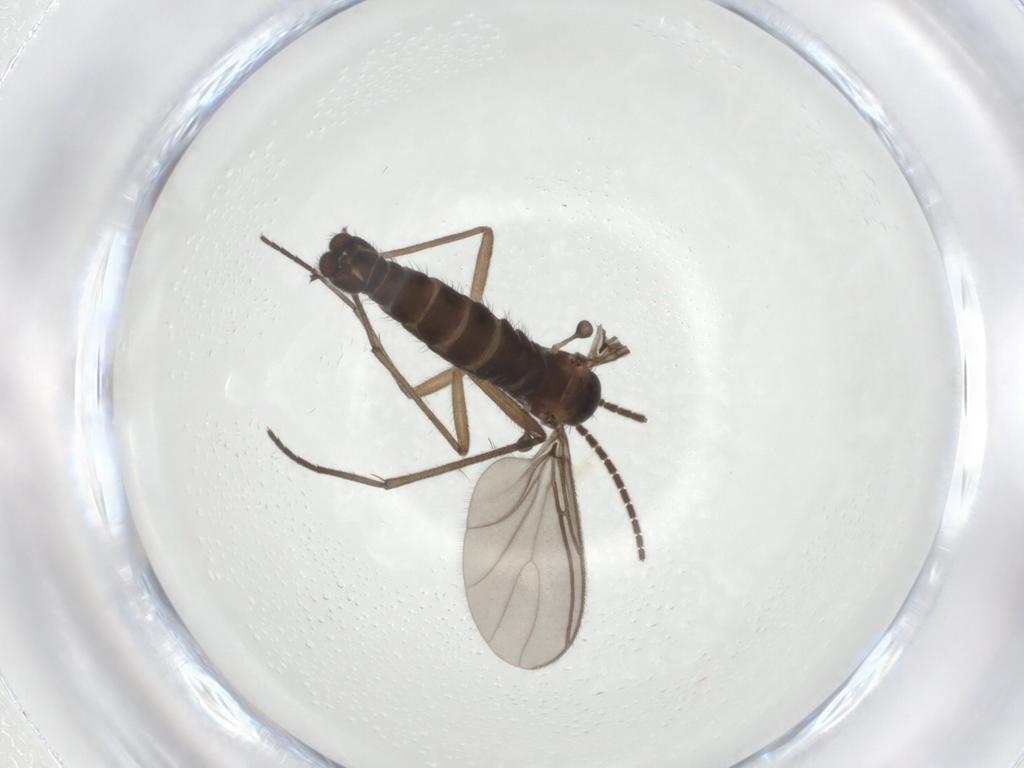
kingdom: Animalia
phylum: Arthropoda
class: Insecta
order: Diptera
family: Sciaridae
